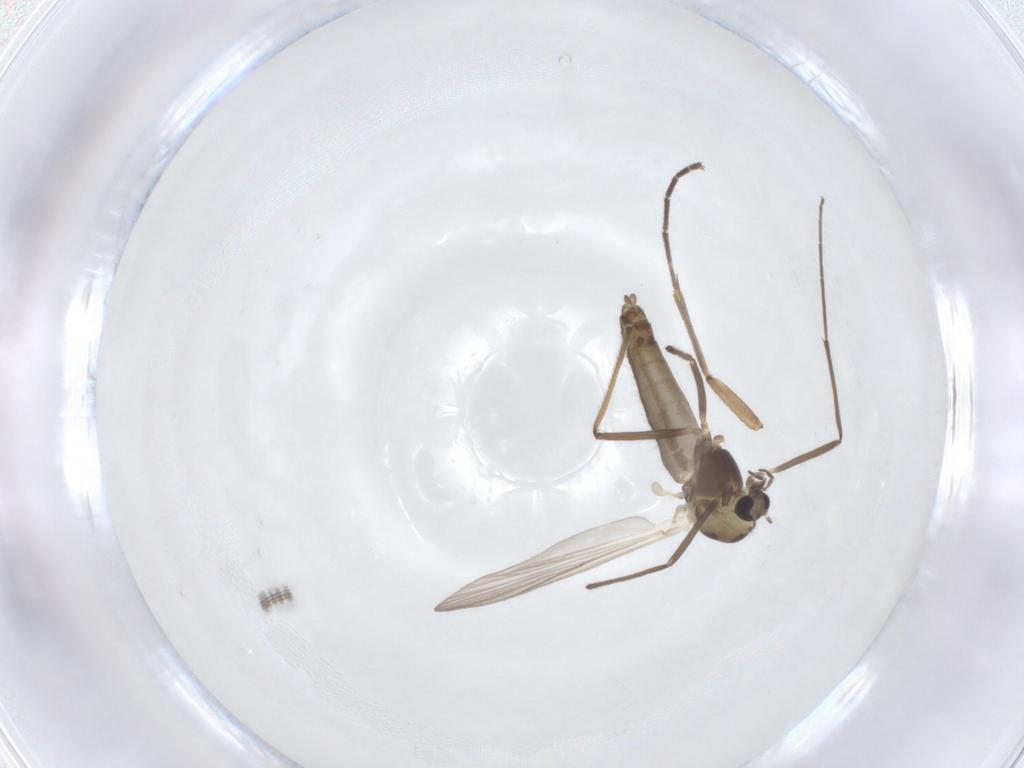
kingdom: Animalia
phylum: Arthropoda
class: Insecta
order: Diptera
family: Chironomidae
